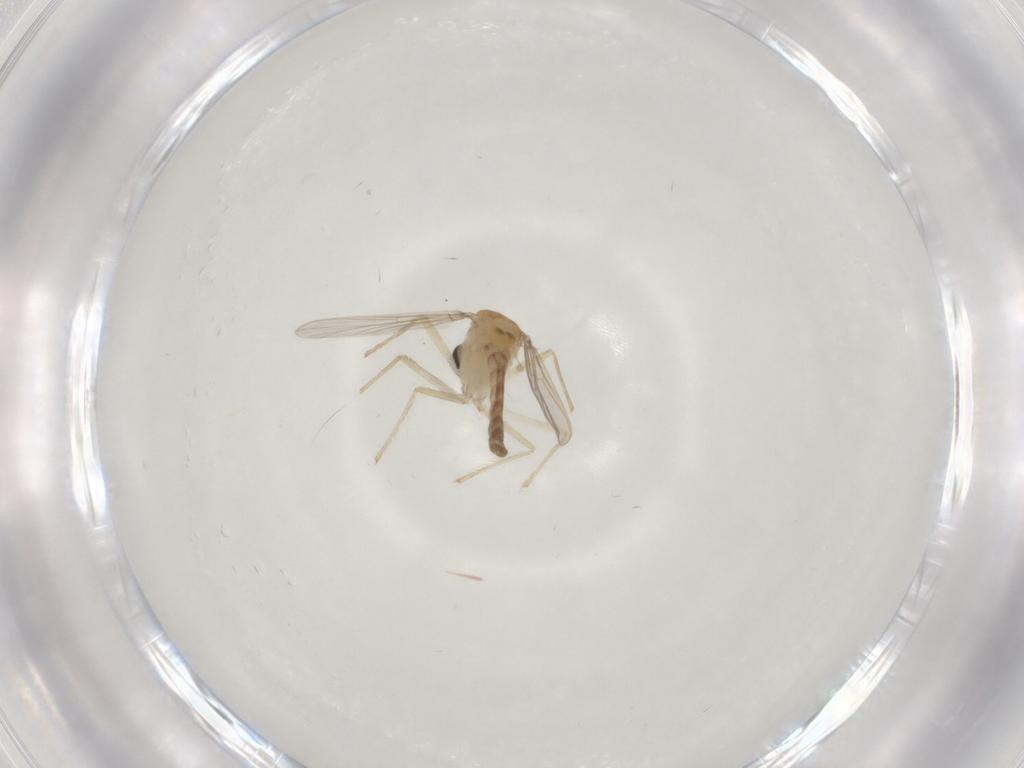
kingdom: Animalia
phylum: Arthropoda
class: Insecta
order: Diptera
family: Chironomidae
